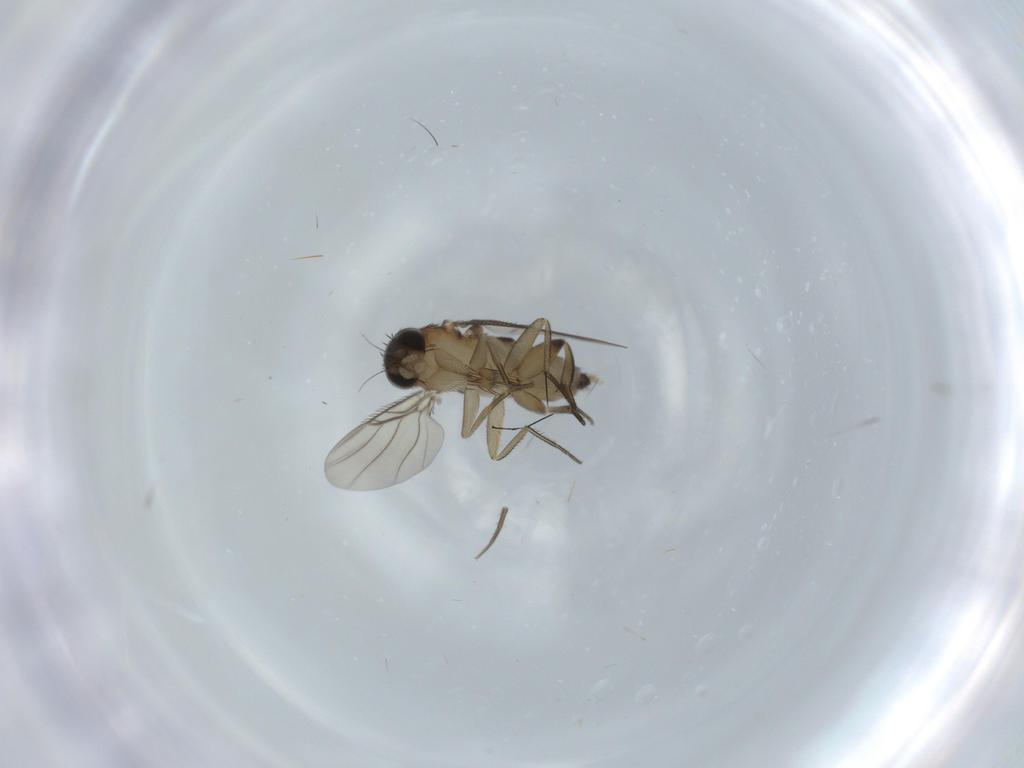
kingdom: Animalia
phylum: Arthropoda
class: Insecta
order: Diptera
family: Phoridae
